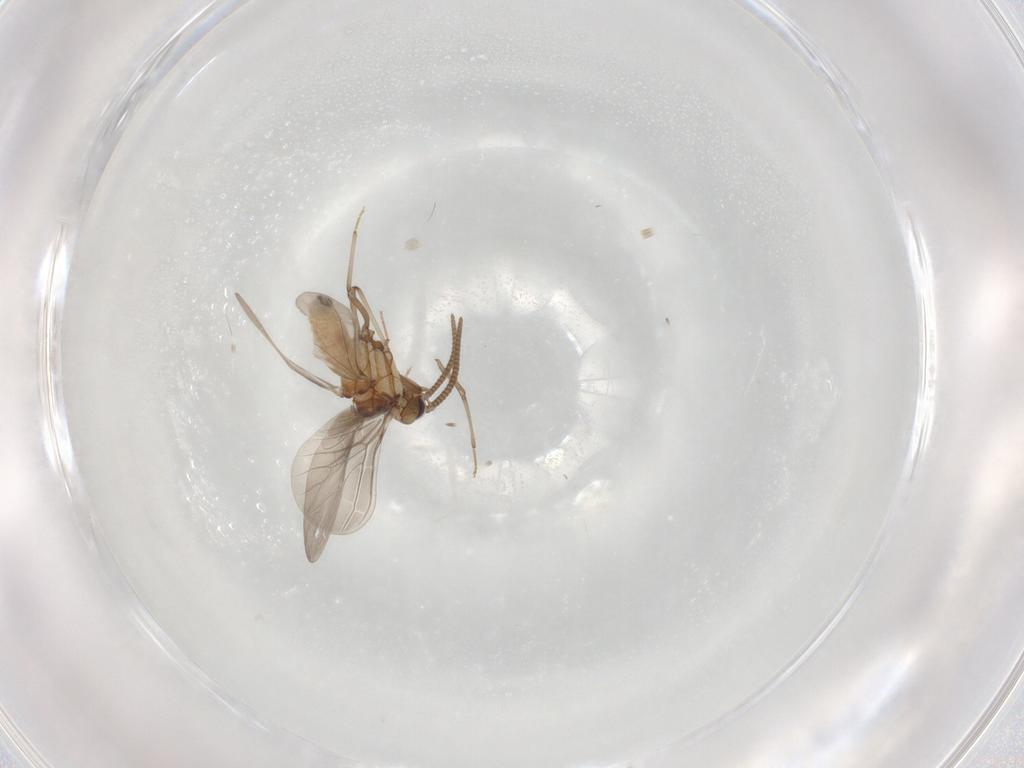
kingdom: Animalia
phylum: Arthropoda
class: Insecta
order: Neuroptera
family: Coniopterygidae
